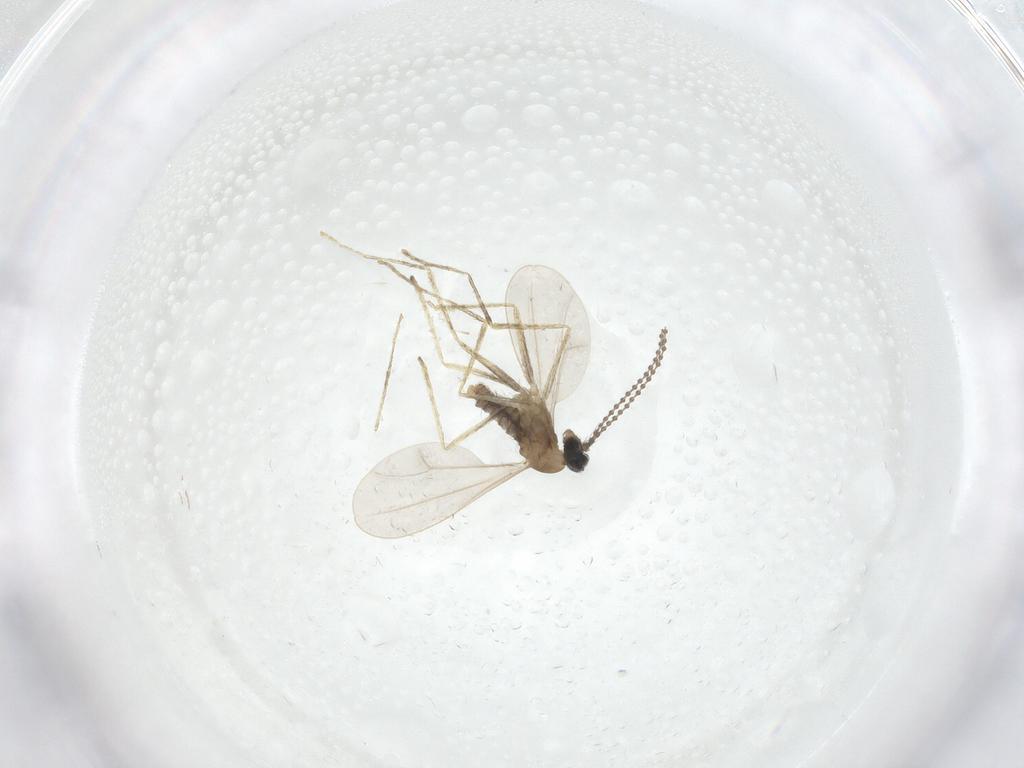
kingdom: Animalia
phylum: Arthropoda
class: Insecta
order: Diptera
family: Cecidomyiidae
